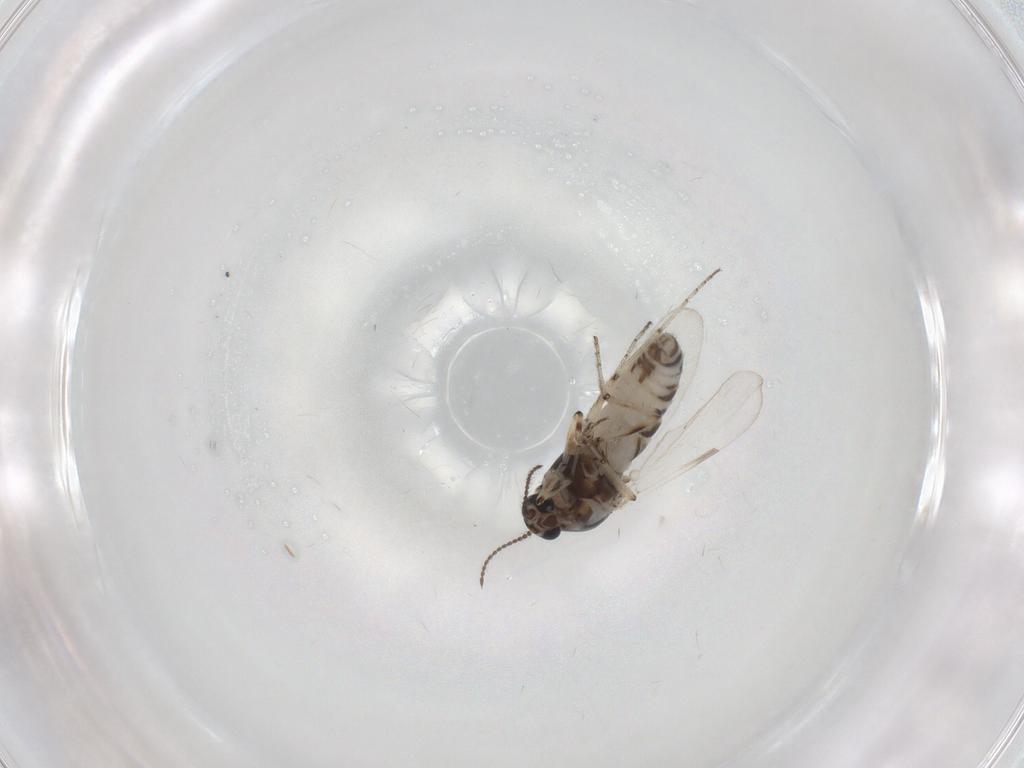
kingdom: Animalia
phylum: Arthropoda
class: Insecta
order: Diptera
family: Ceratopogonidae
